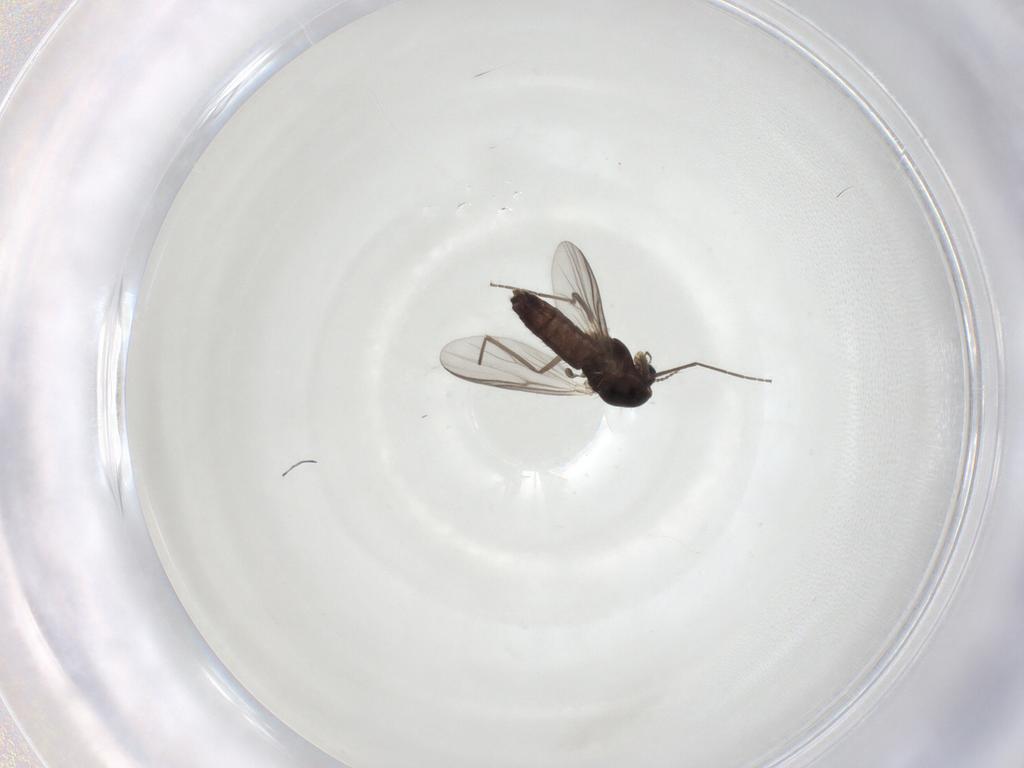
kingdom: Animalia
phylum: Arthropoda
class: Insecta
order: Diptera
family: Chironomidae
